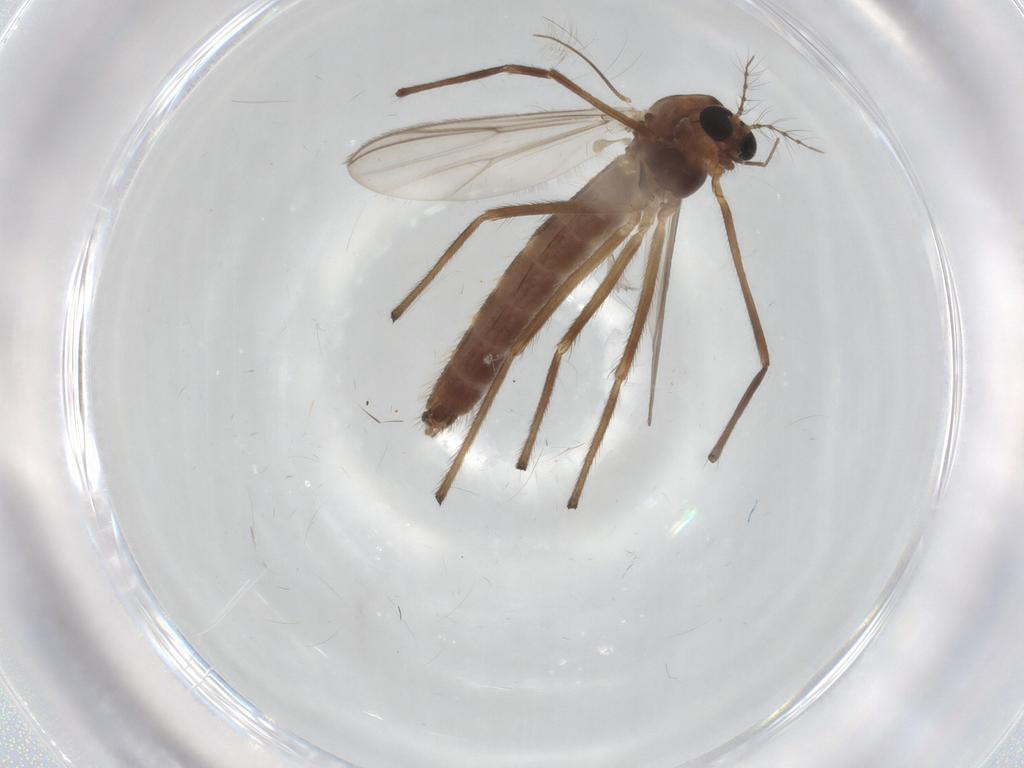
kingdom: Animalia
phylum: Arthropoda
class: Insecta
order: Diptera
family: Chironomidae
